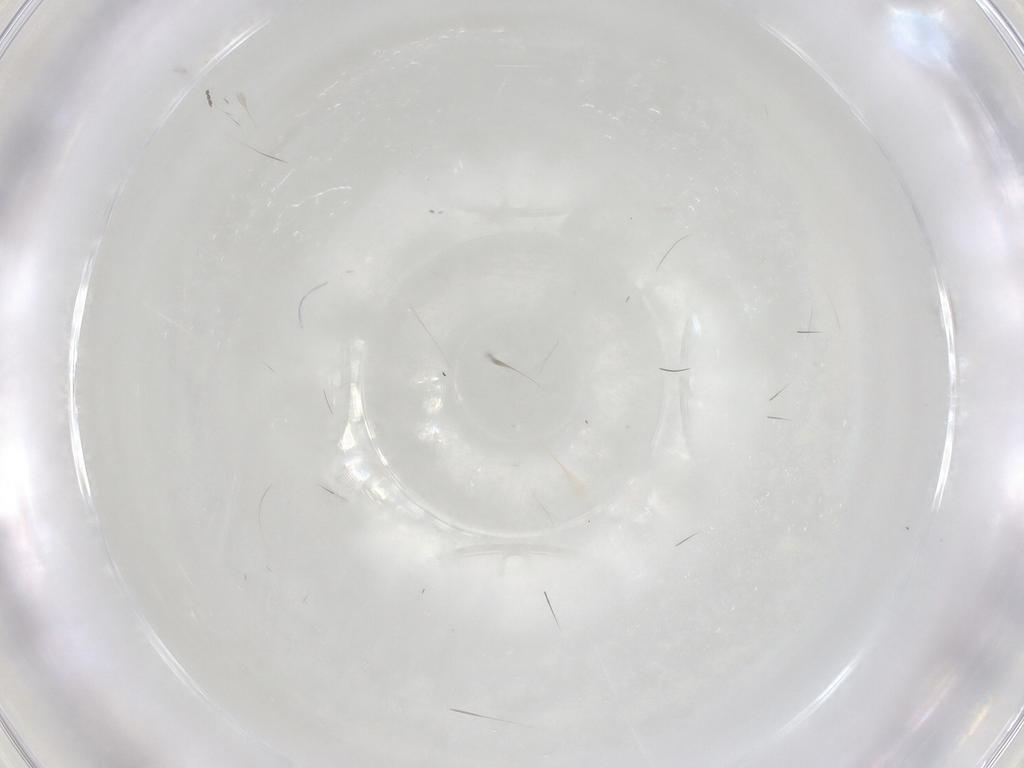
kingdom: Animalia
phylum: Arthropoda
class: Arachnida
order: Trombidiformes
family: Anystidae
